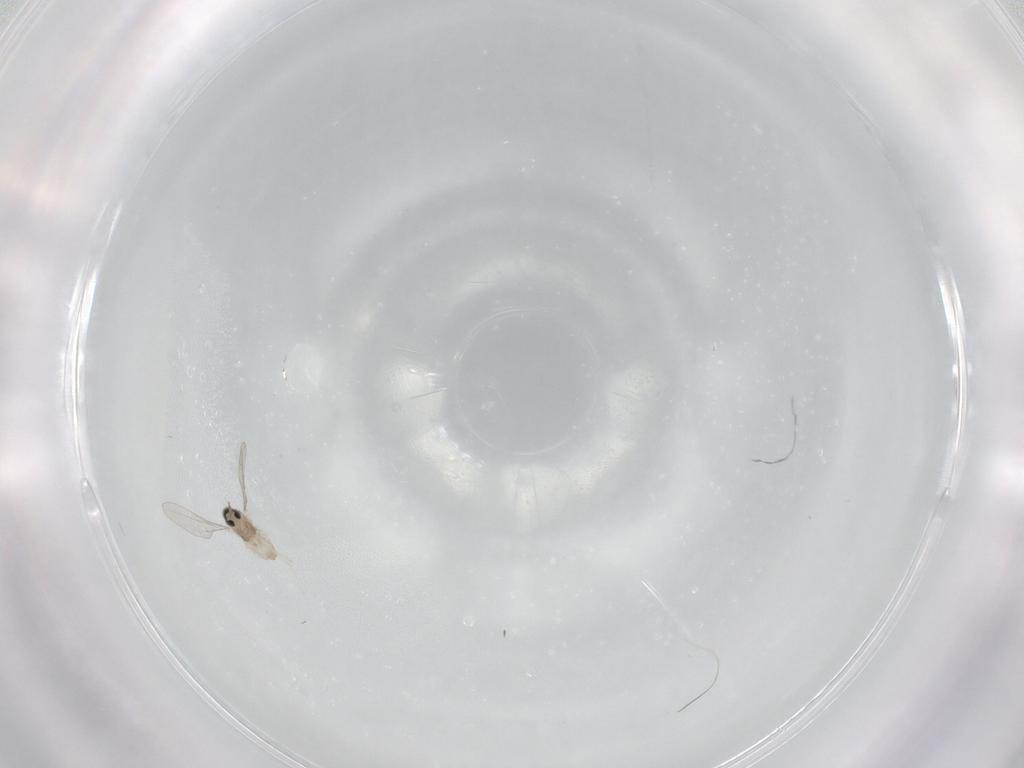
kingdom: Animalia
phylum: Arthropoda
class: Insecta
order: Diptera
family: Cecidomyiidae
